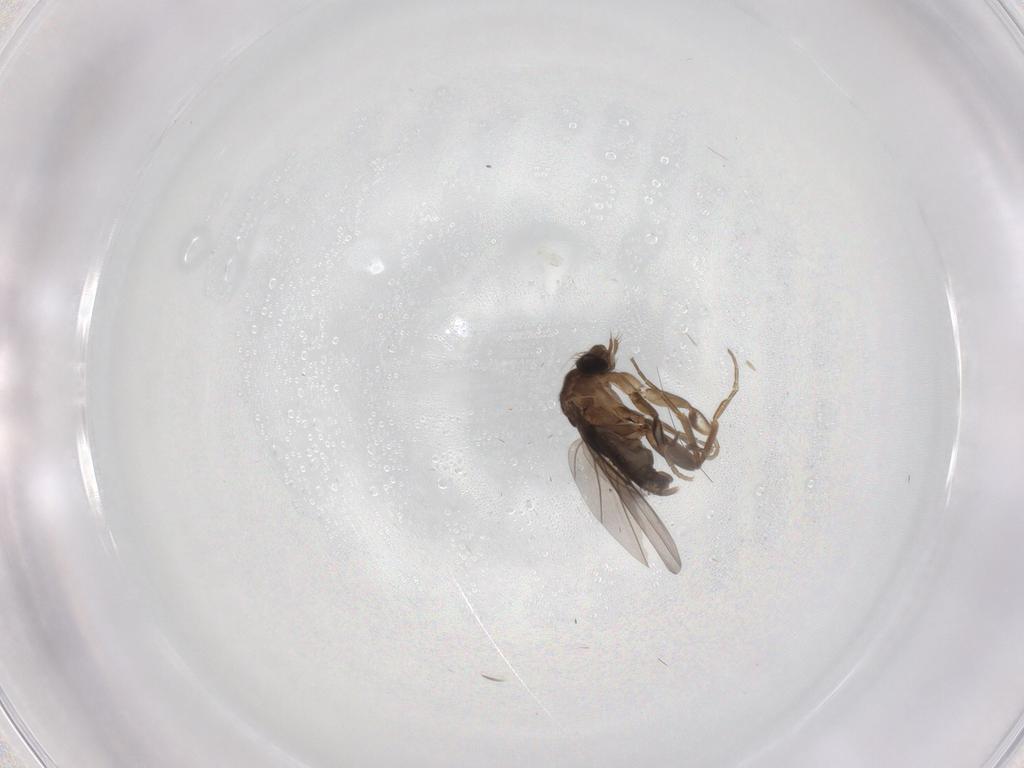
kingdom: Animalia
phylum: Arthropoda
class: Insecta
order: Diptera
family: Phoridae
